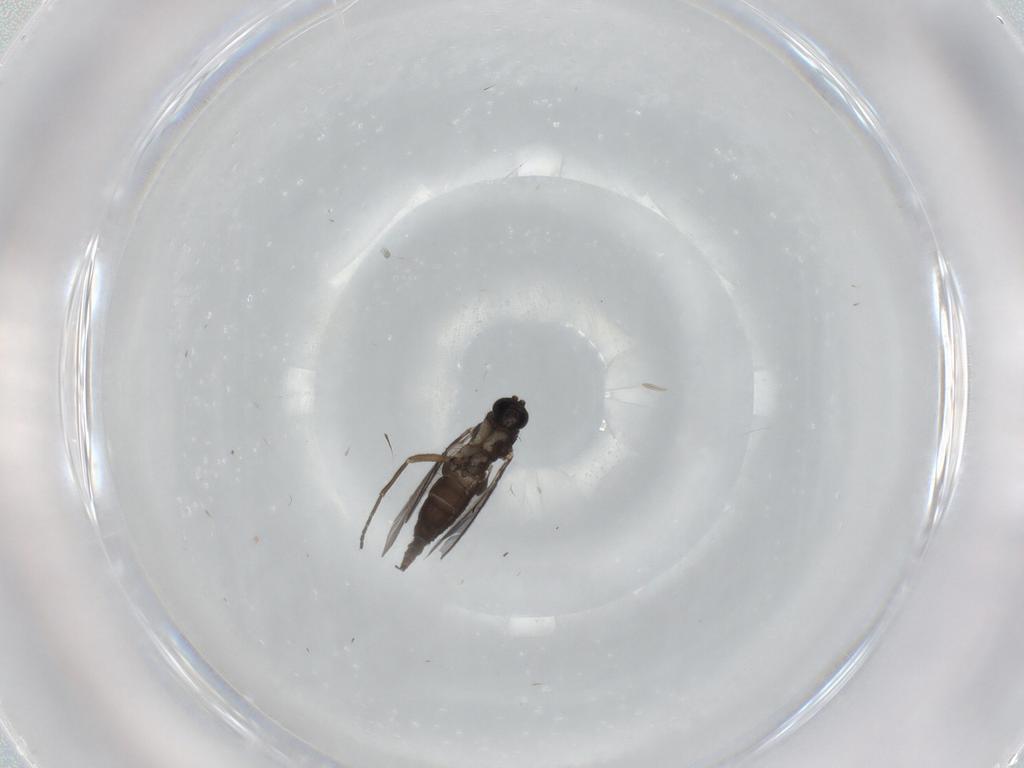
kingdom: Animalia
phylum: Arthropoda
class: Insecta
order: Diptera
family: Sciaridae
